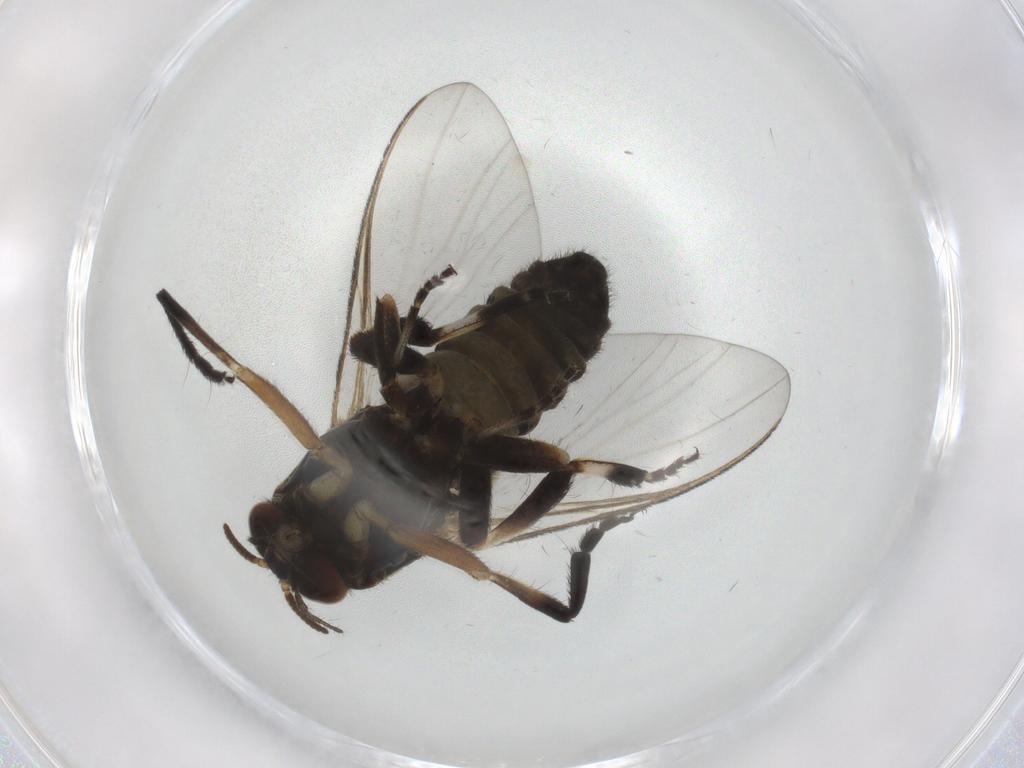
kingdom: Animalia
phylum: Arthropoda
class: Insecta
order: Diptera
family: Ceratopogonidae
